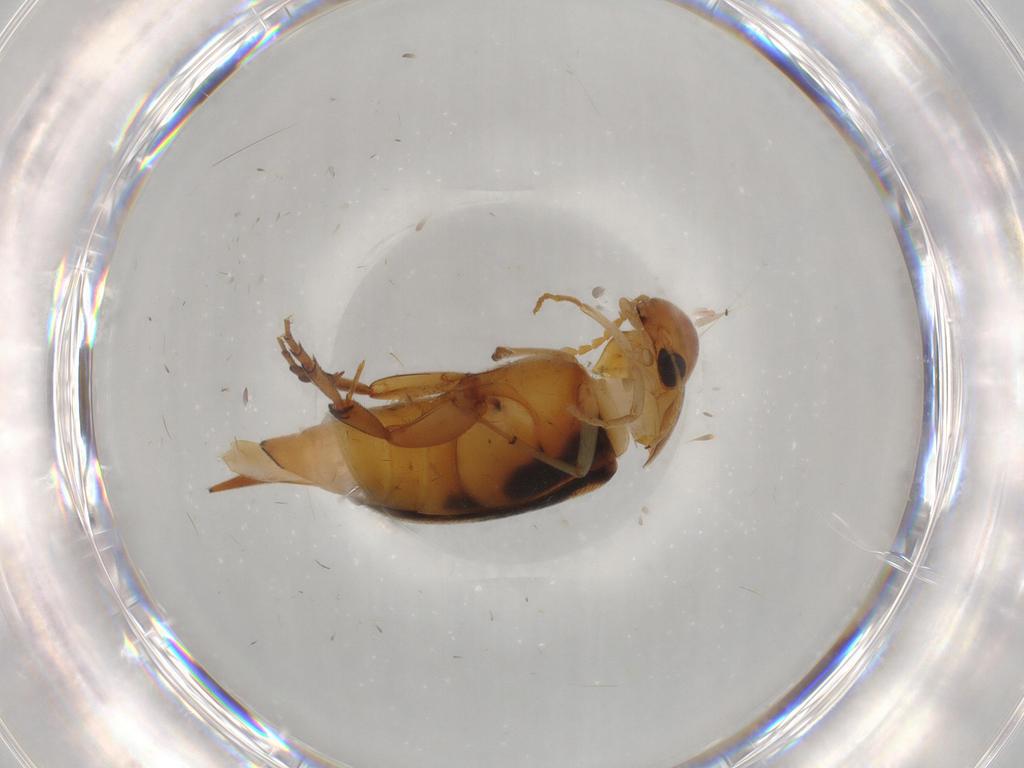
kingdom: Animalia
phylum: Arthropoda
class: Insecta
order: Coleoptera
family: Mordellidae
